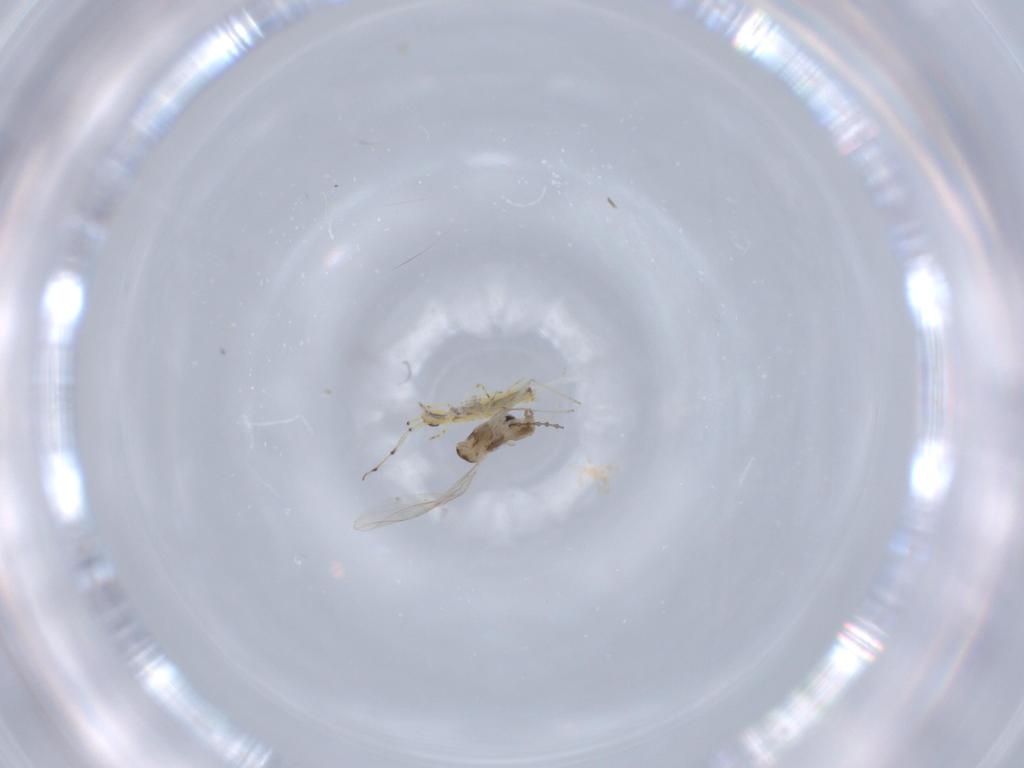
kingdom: Animalia
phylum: Arthropoda
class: Collembola
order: Entomobryomorpha
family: Paronellidae
